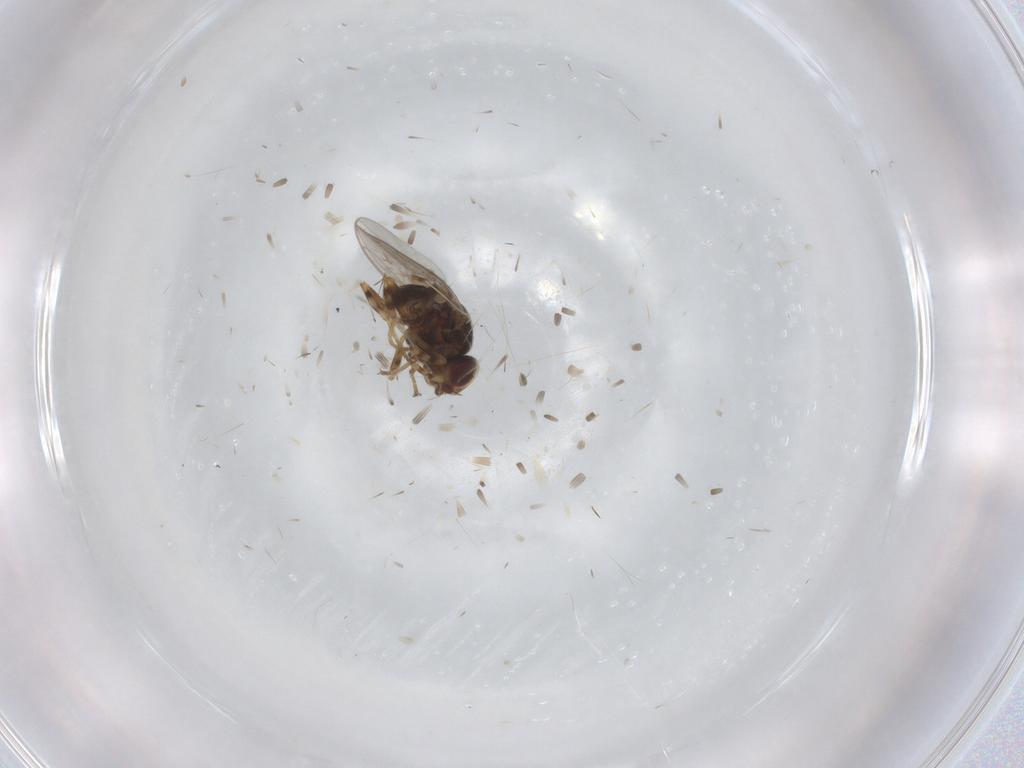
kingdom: Animalia
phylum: Arthropoda
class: Insecta
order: Diptera
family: Chloropidae
